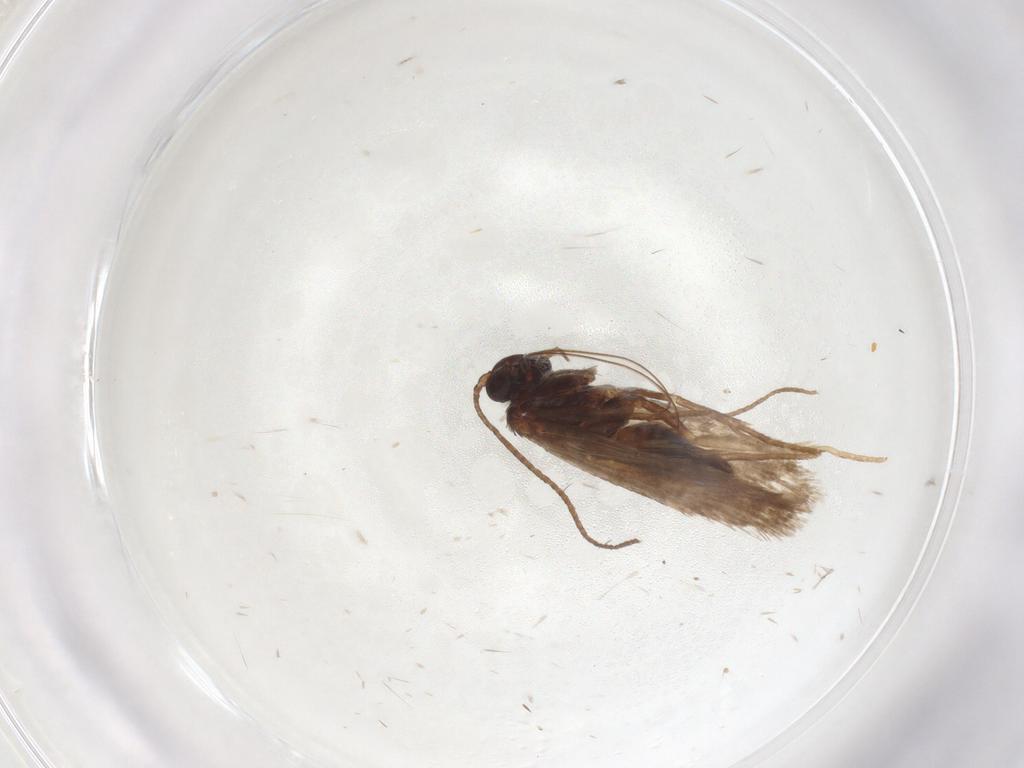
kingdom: Animalia
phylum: Arthropoda
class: Insecta
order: Lepidoptera
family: Adelidae
